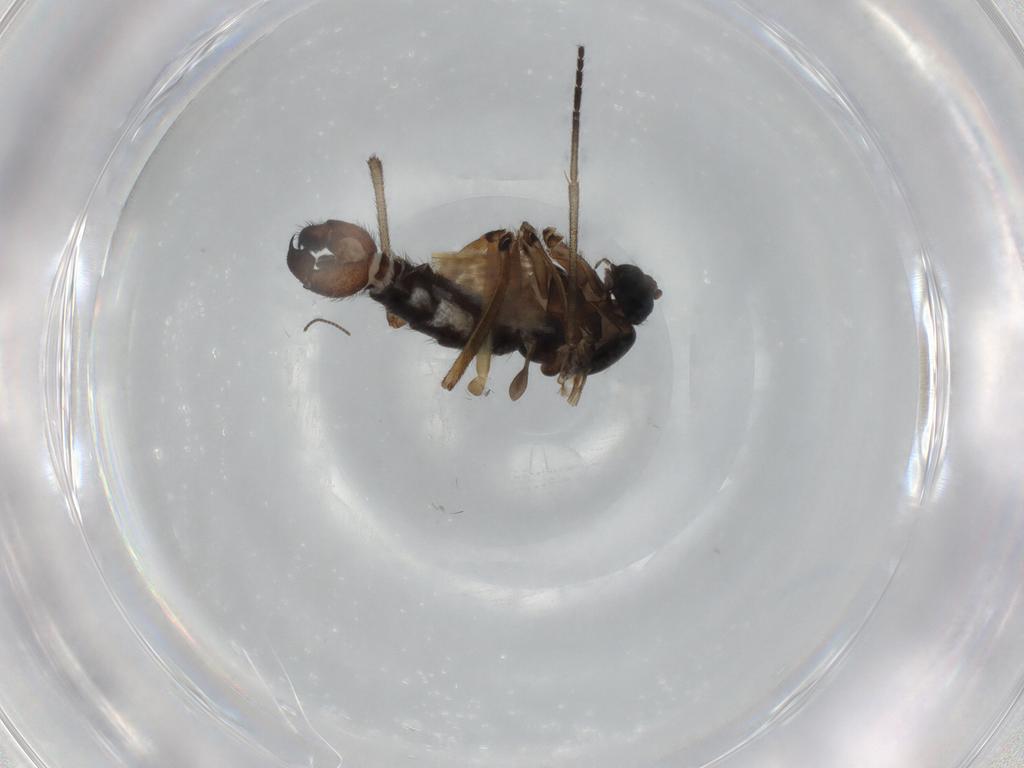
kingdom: Animalia
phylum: Arthropoda
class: Insecta
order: Diptera
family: Sciaridae
